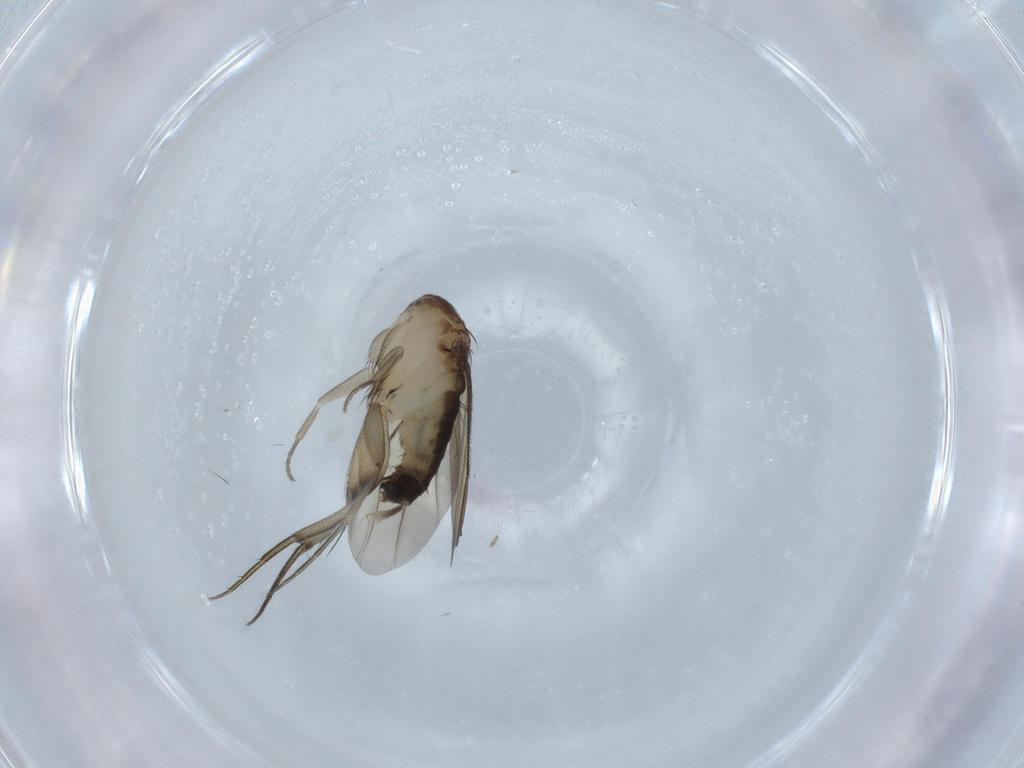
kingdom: Animalia
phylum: Arthropoda
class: Insecta
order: Diptera
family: Phoridae
